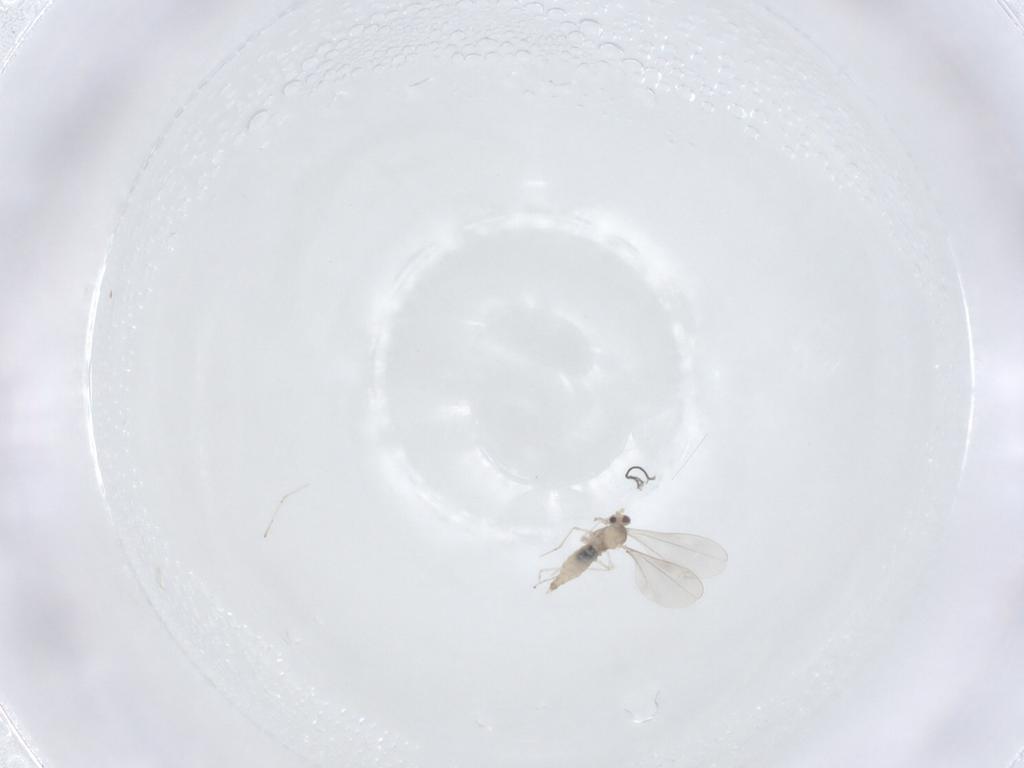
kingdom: Animalia
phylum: Arthropoda
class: Insecta
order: Diptera
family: Cecidomyiidae
